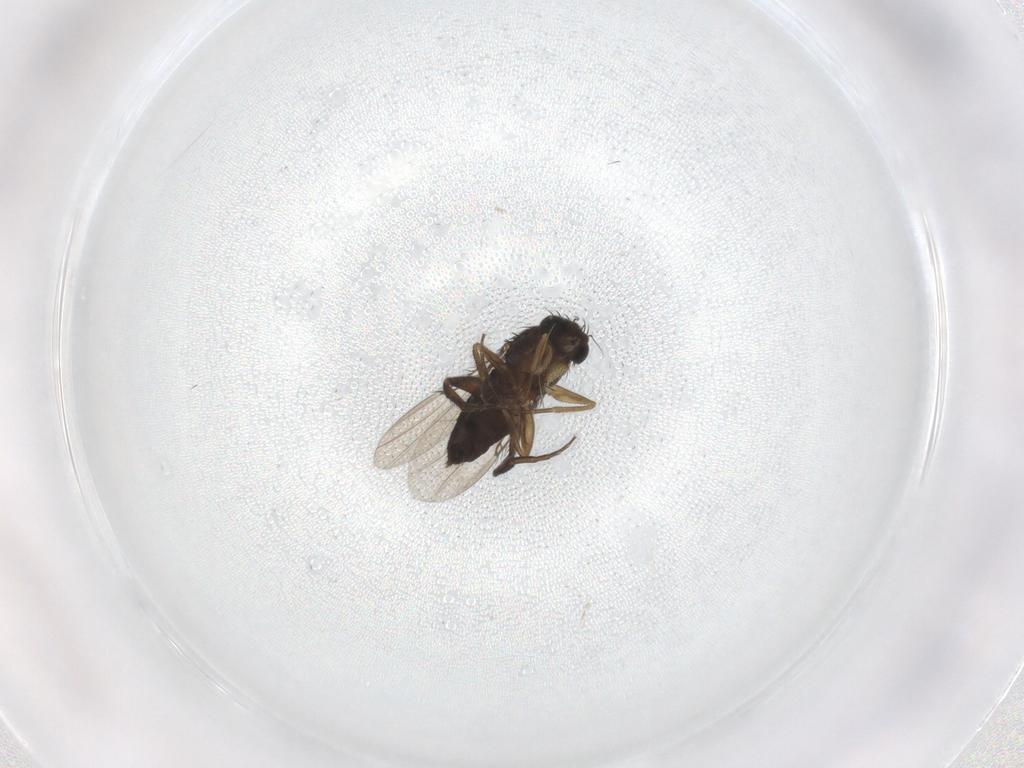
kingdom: Animalia
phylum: Arthropoda
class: Insecta
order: Diptera
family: Phoridae
